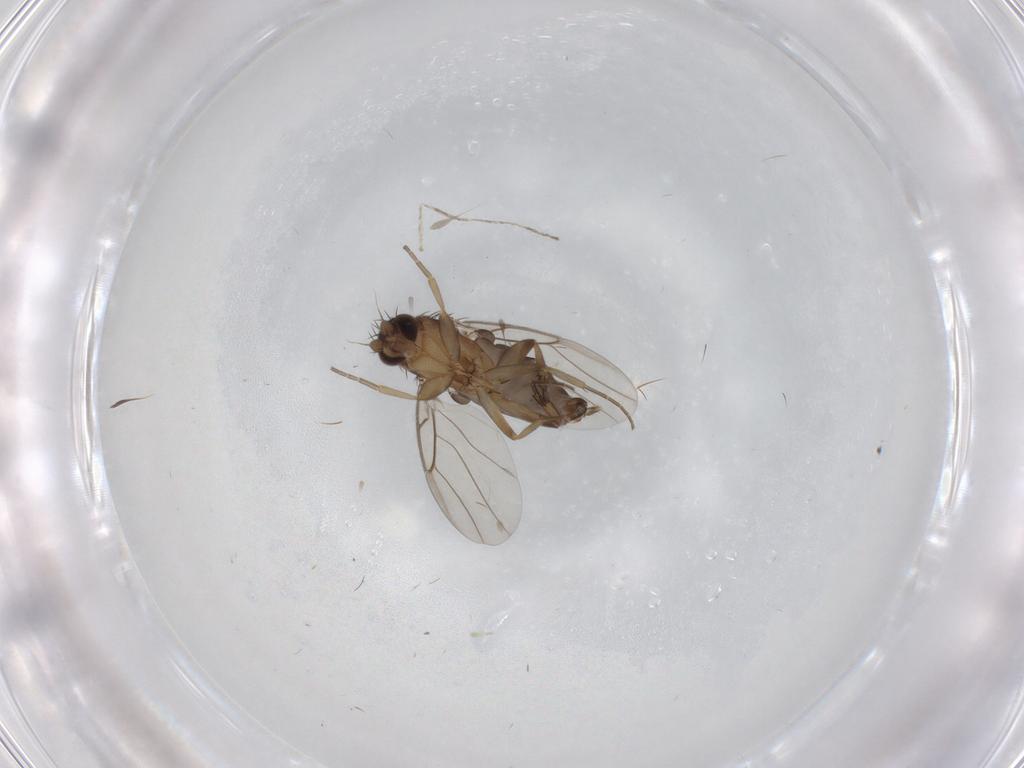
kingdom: Animalia
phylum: Arthropoda
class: Insecta
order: Diptera
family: Phoridae
